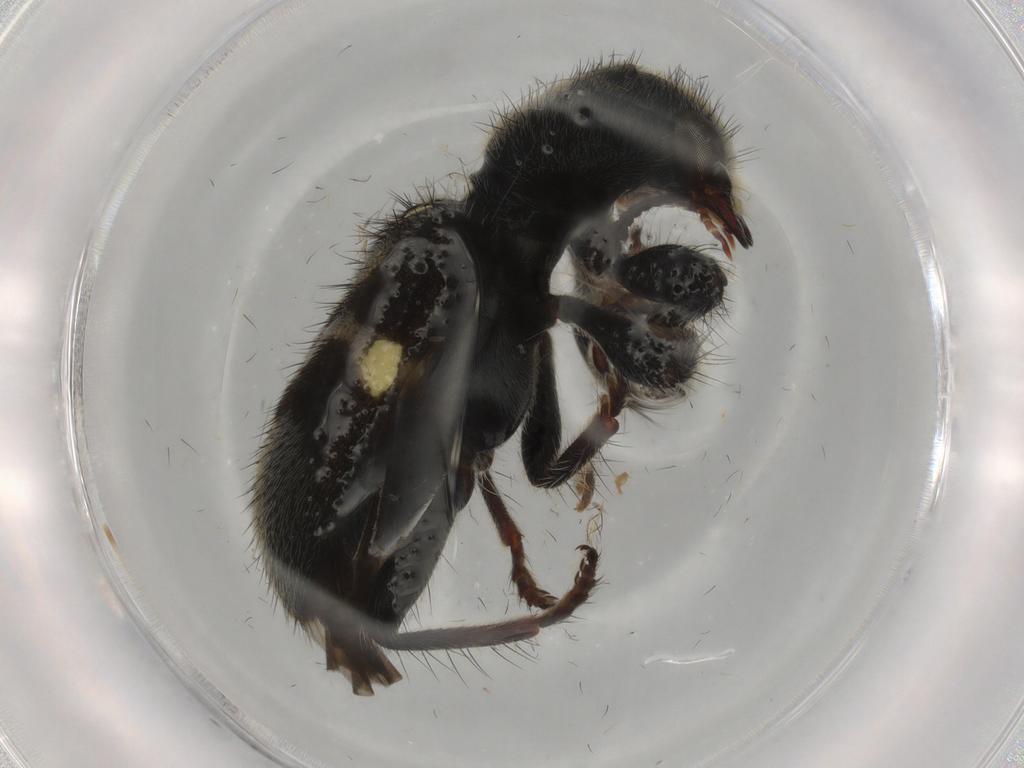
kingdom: Animalia
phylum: Arthropoda
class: Insecta
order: Coleoptera
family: Cleridae
